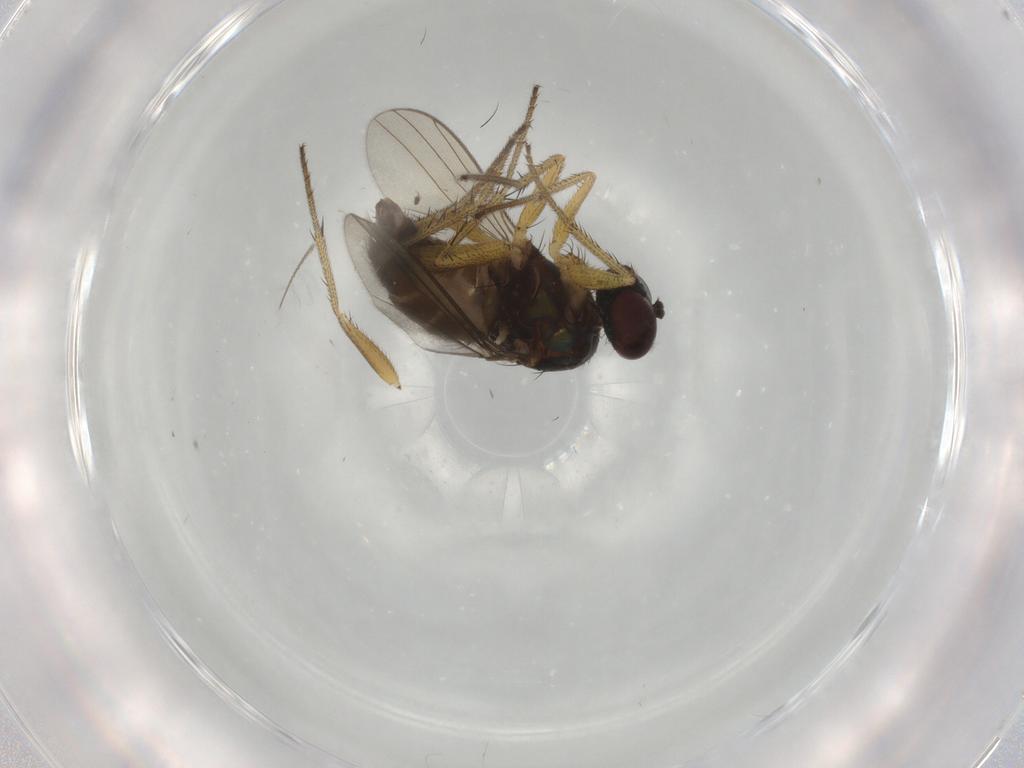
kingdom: Animalia
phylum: Arthropoda
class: Insecta
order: Diptera
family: Dolichopodidae
